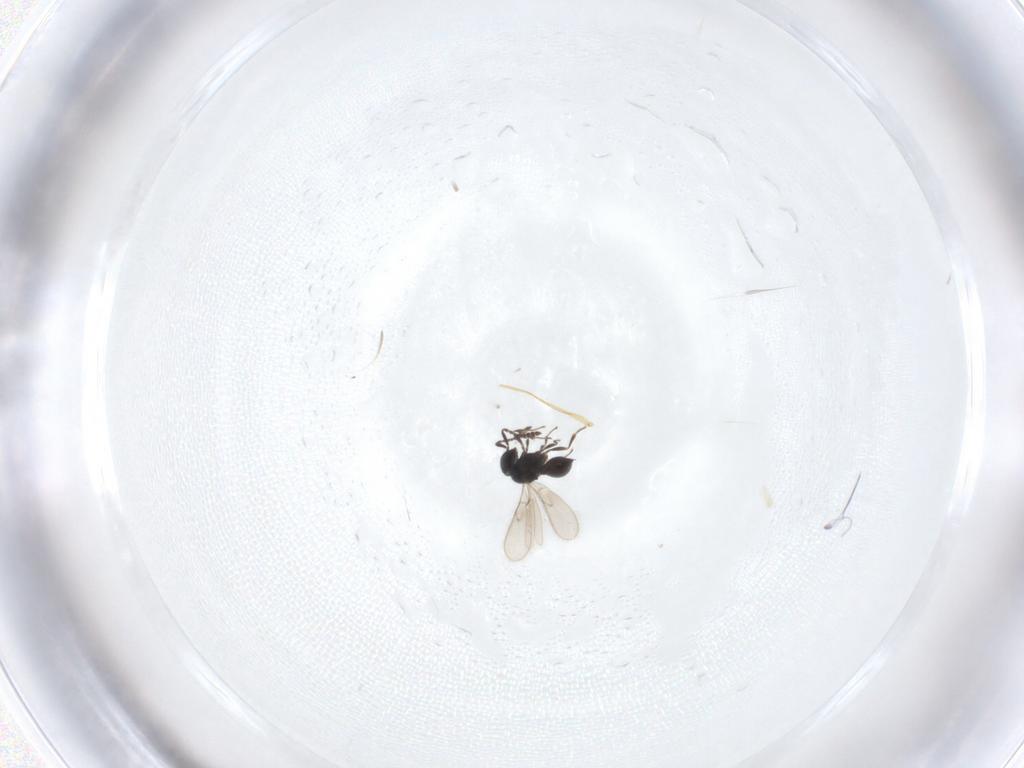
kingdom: Animalia
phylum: Arthropoda
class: Insecta
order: Hymenoptera
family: Scelionidae
